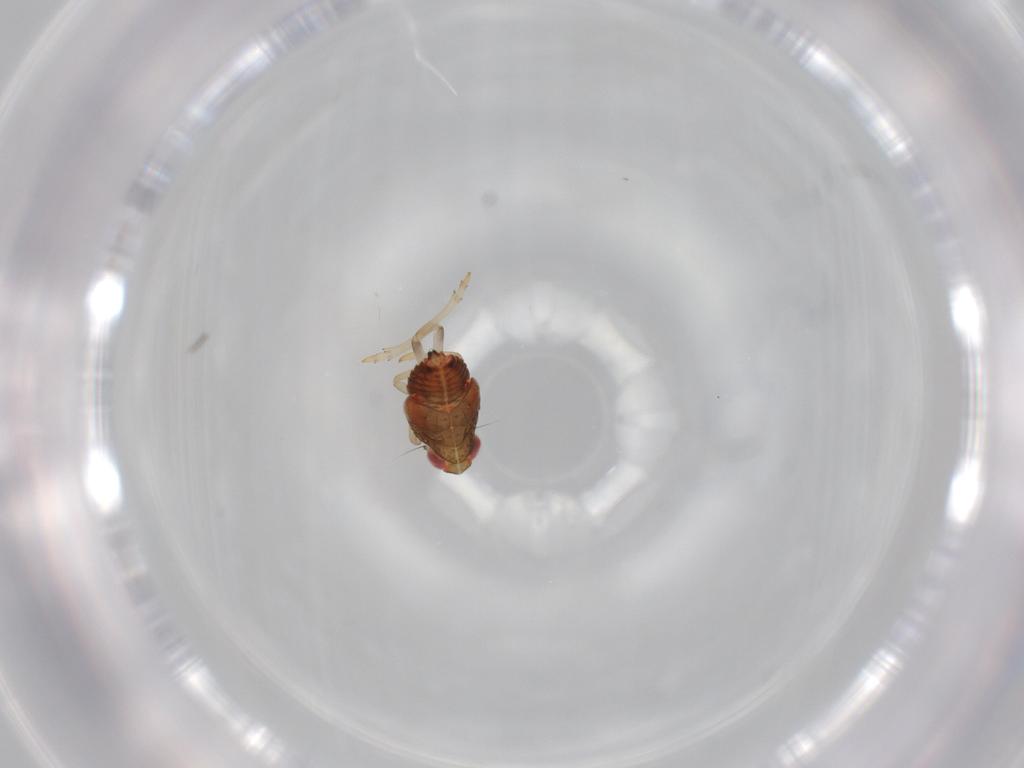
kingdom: Animalia
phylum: Arthropoda
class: Insecta
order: Hemiptera
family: Issidae
